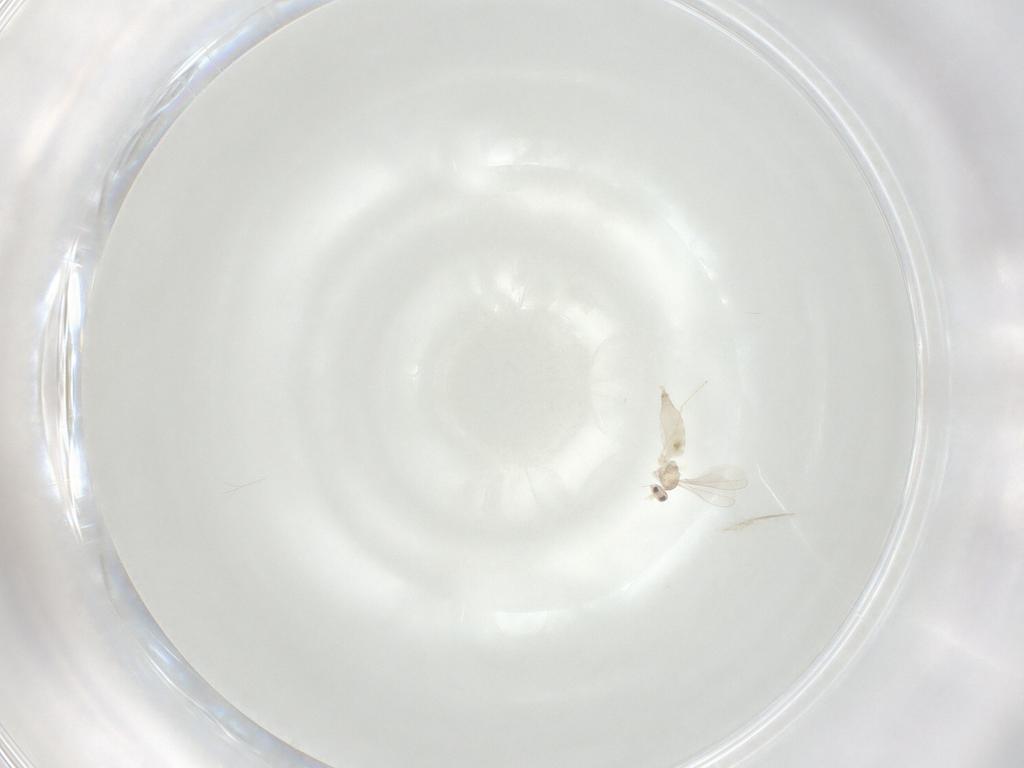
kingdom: Animalia
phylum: Arthropoda
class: Insecta
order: Diptera
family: Cecidomyiidae
